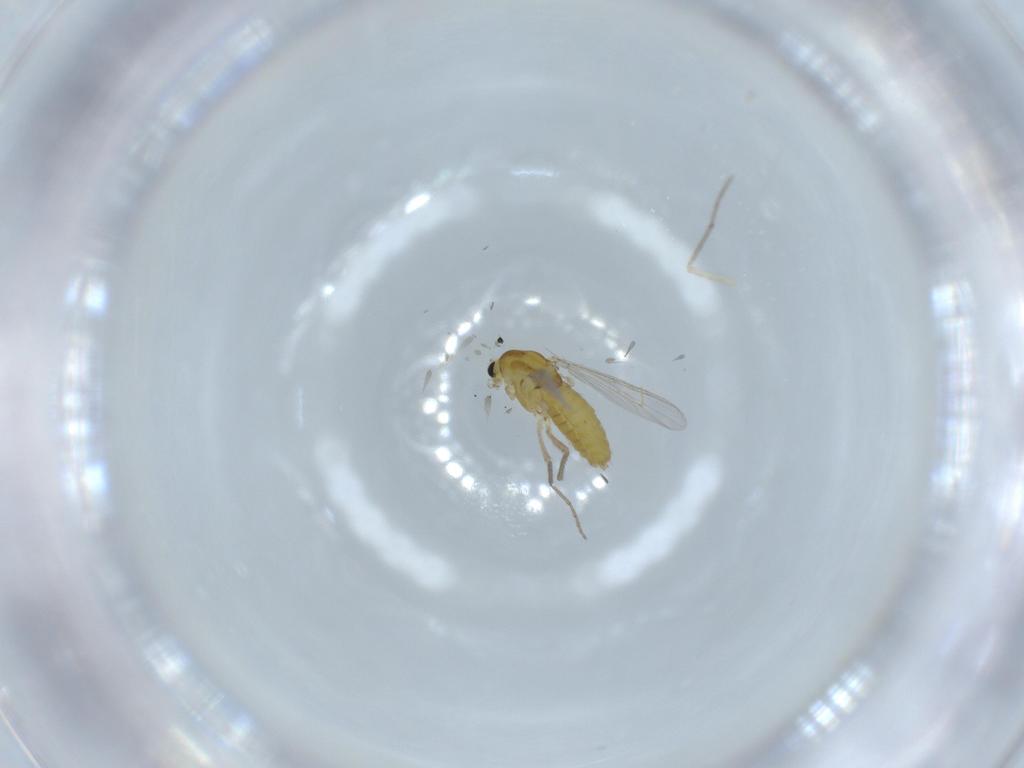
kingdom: Animalia
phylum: Arthropoda
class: Insecta
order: Diptera
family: Chironomidae
